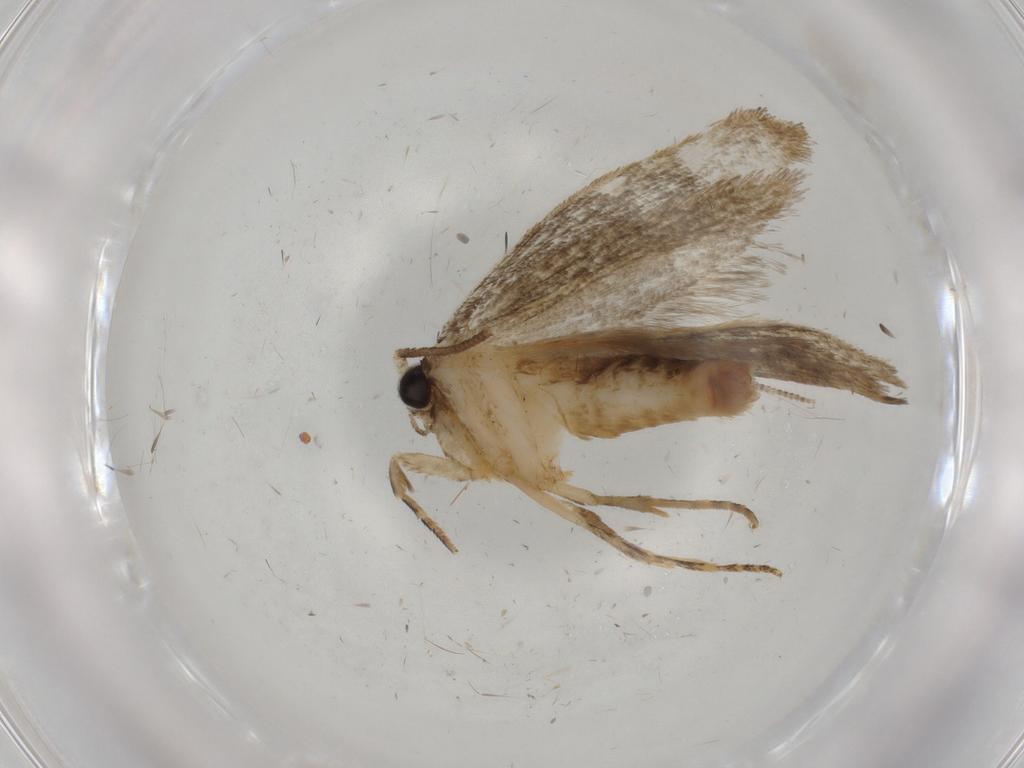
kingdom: Animalia
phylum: Arthropoda
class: Insecta
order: Lepidoptera
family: Tineidae
